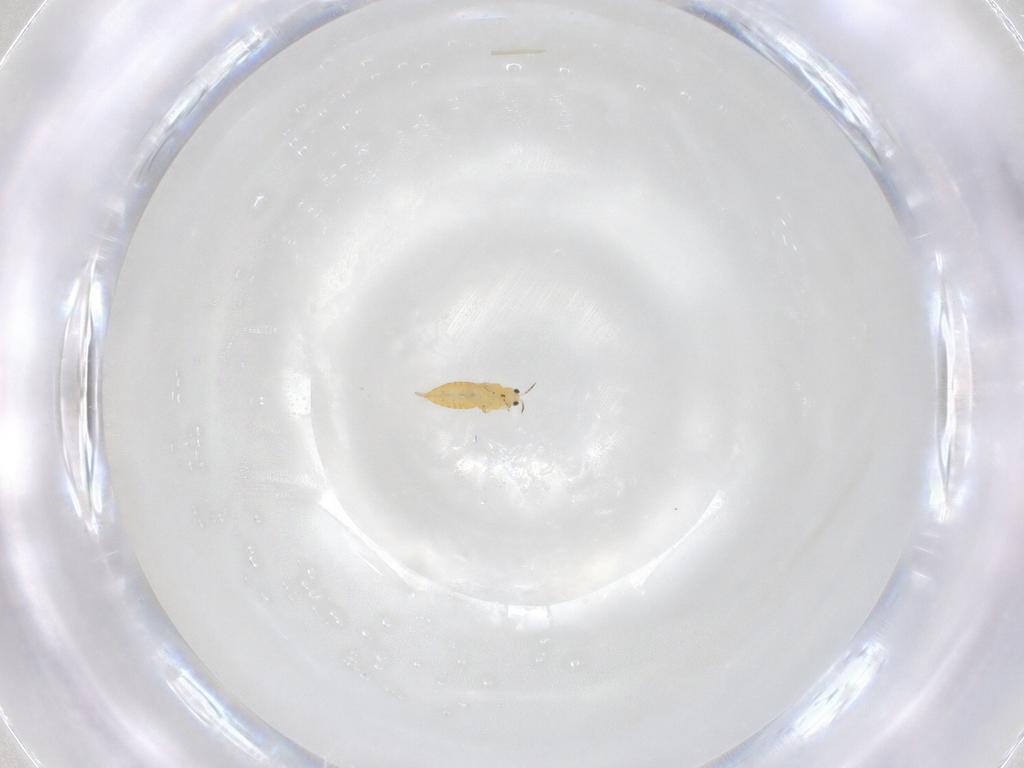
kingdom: Animalia
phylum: Arthropoda
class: Insecta
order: Thysanoptera
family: Thripidae
